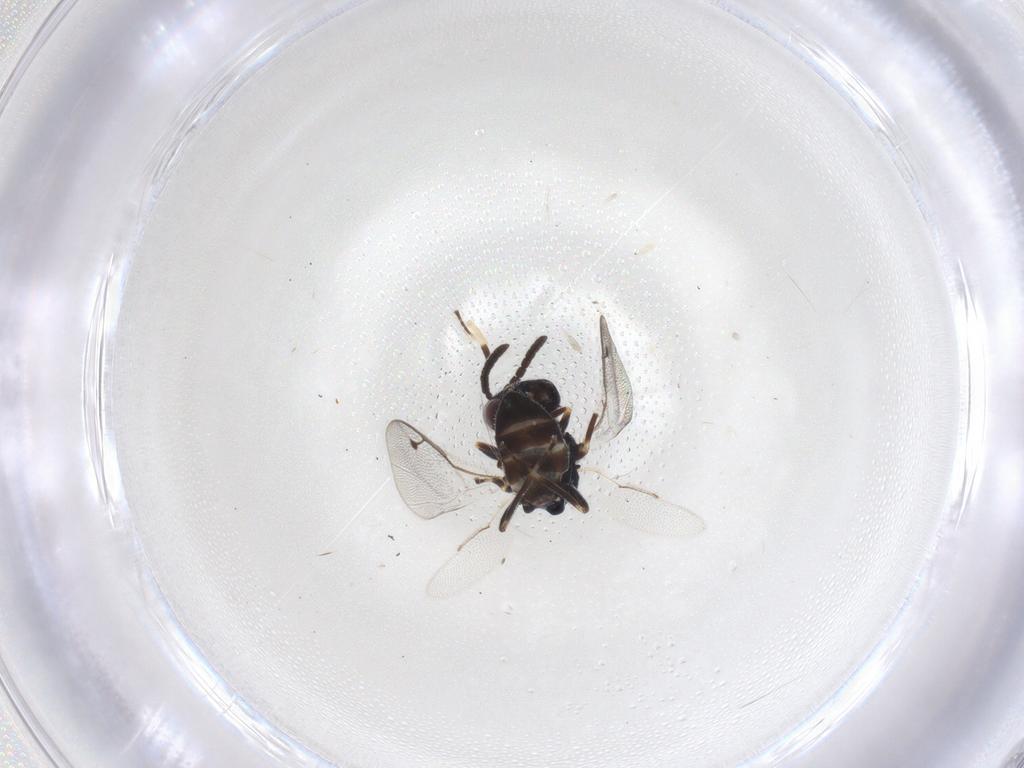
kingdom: Animalia
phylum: Arthropoda
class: Insecta
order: Hymenoptera
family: Pteromalidae
